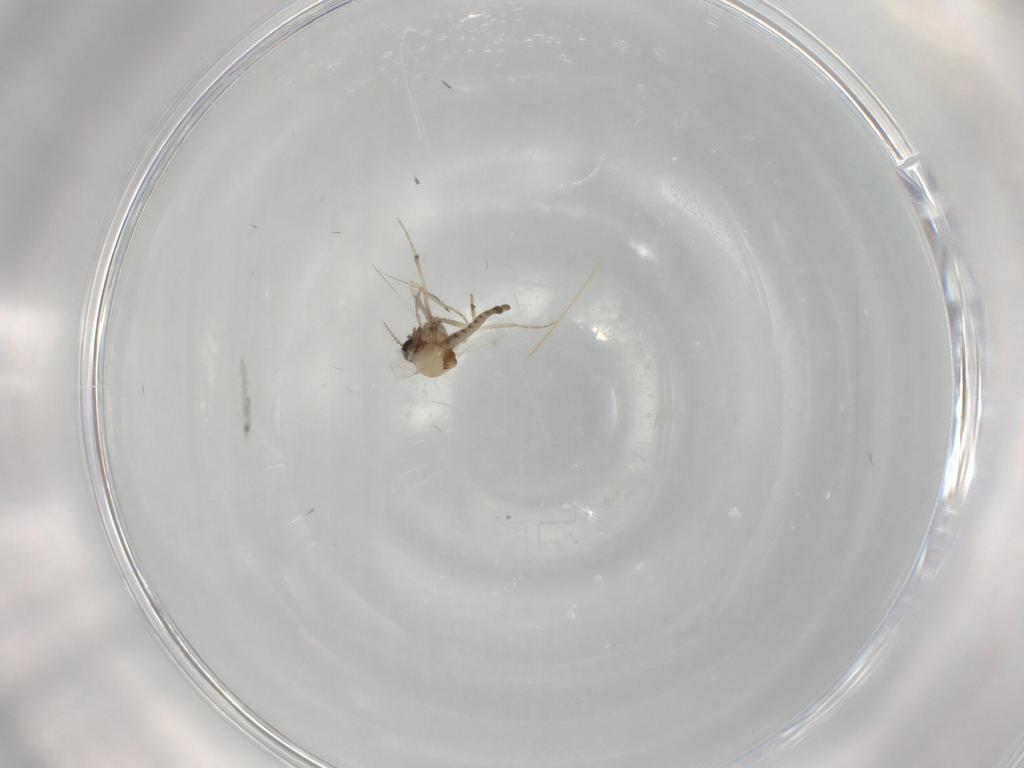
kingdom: Animalia
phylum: Arthropoda
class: Insecta
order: Diptera
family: Ceratopogonidae
